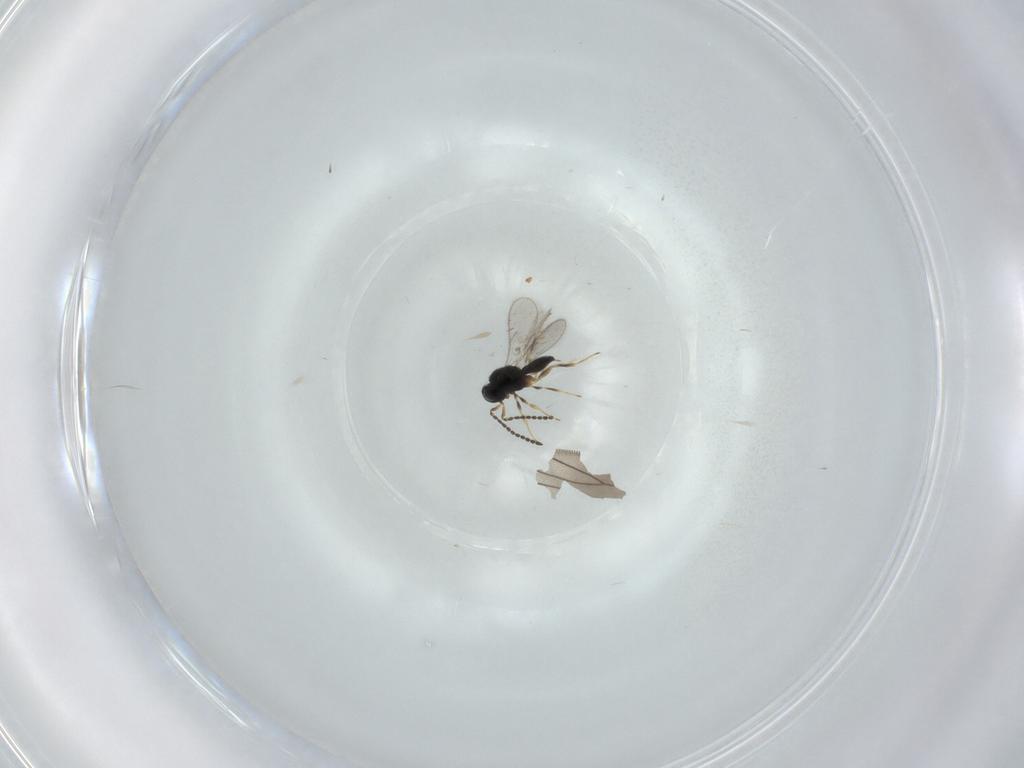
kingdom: Animalia
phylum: Arthropoda
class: Insecta
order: Hymenoptera
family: Scelionidae
